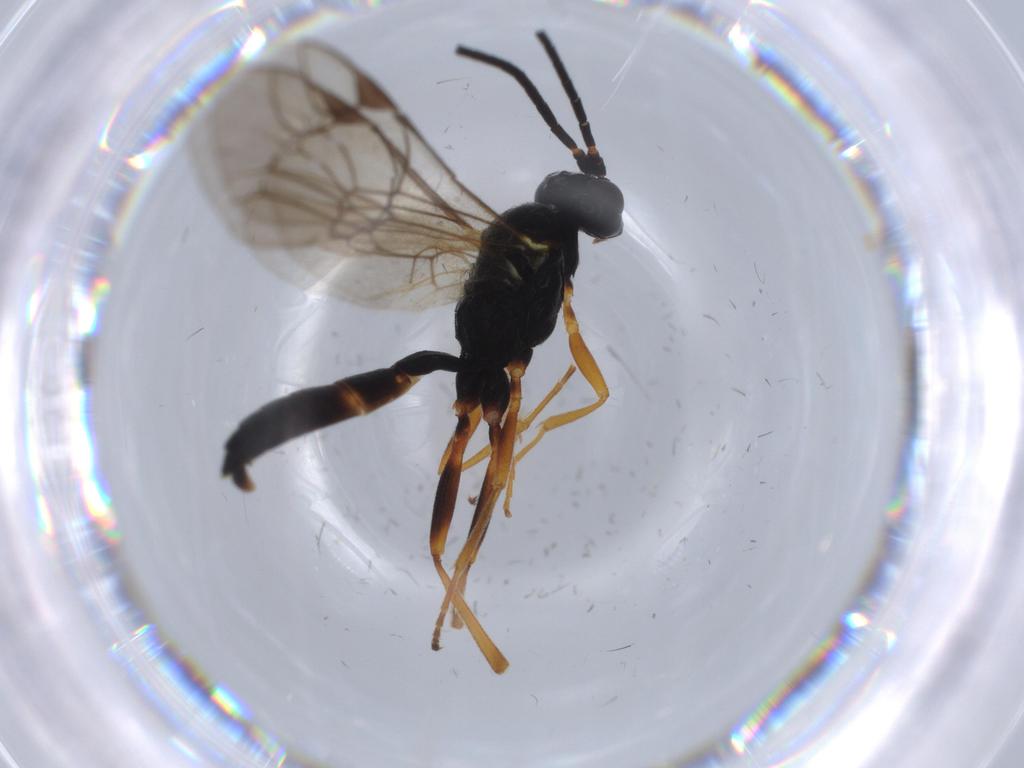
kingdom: Animalia
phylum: Arthropoda
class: Insecta
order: Hymenoptera
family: Ichneumonidae
